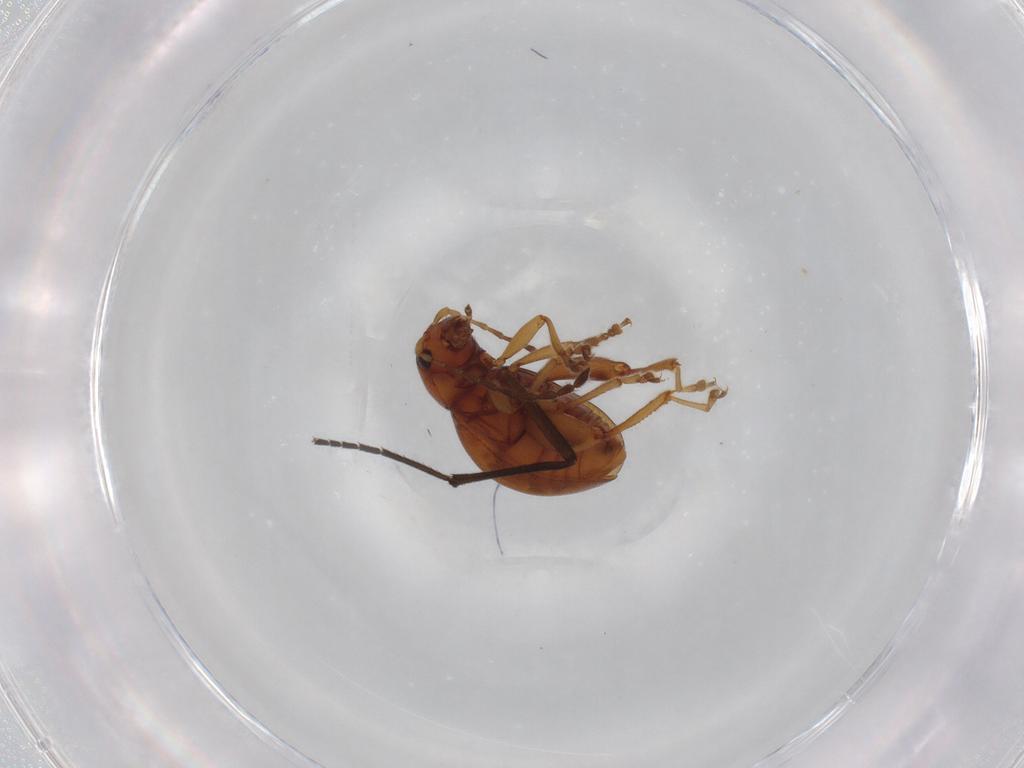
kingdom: Animalia
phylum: Arthropoda
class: Insecta
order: Coleoptera
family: Chrysomelidae
